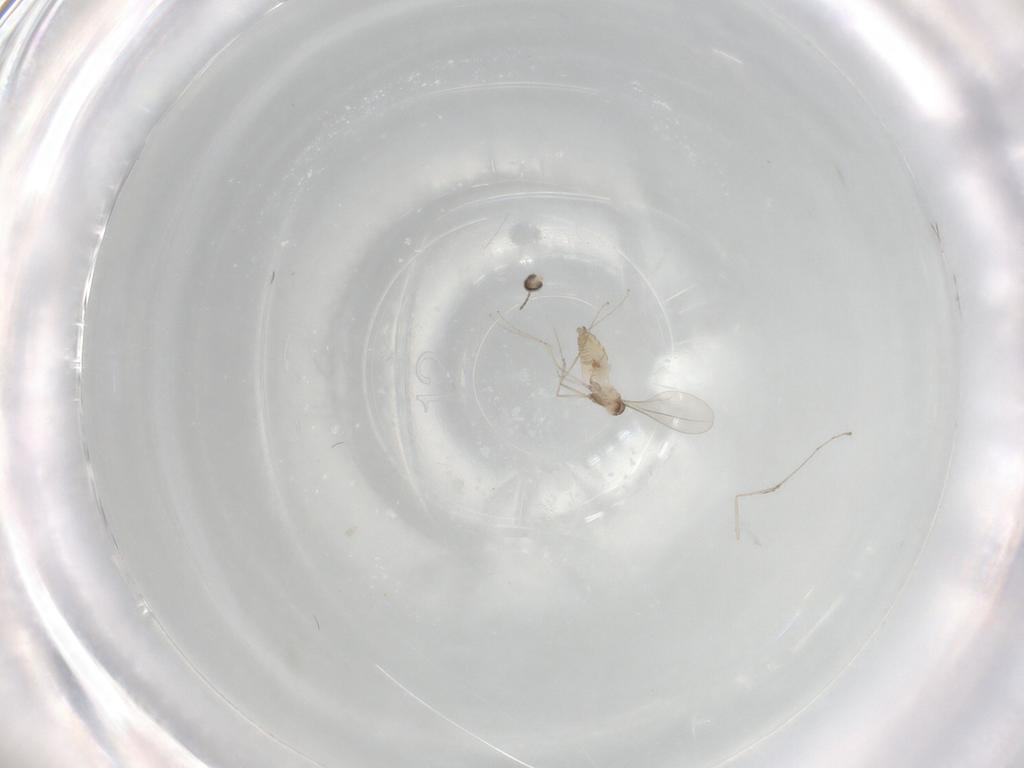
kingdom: Animalia
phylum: Arthropoda
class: Insecta
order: Diptera
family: Cecidomyiidae
